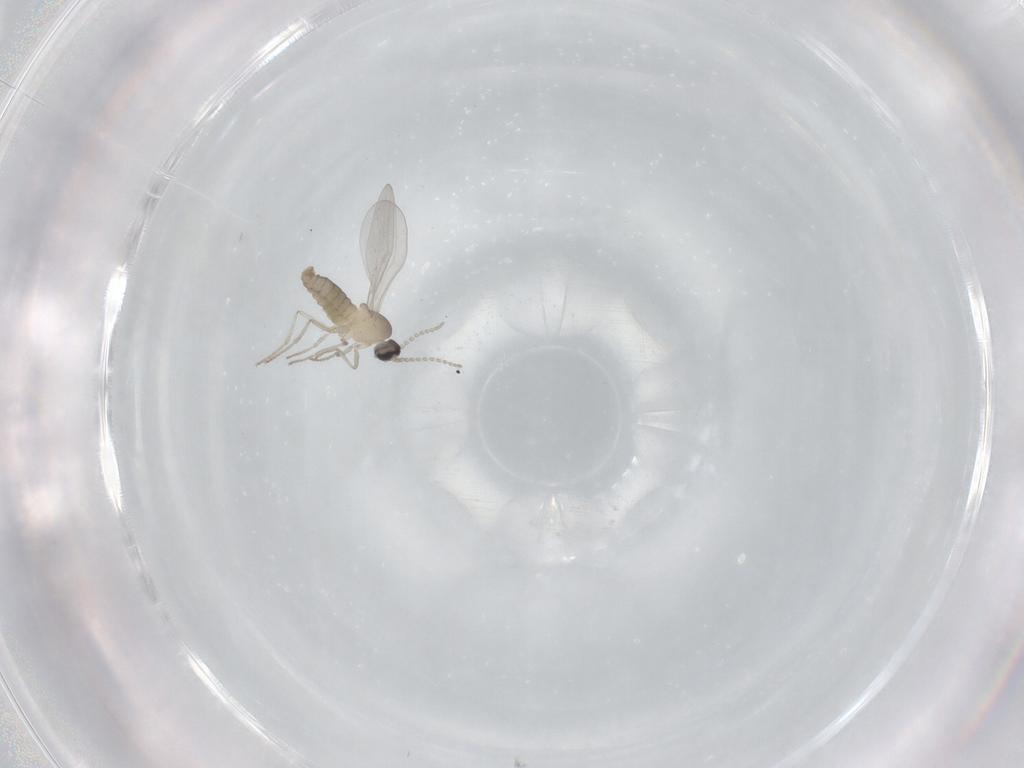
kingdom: Animalia
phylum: Arthropoda
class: Insecta
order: Diptera
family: Cecidomyiidae
